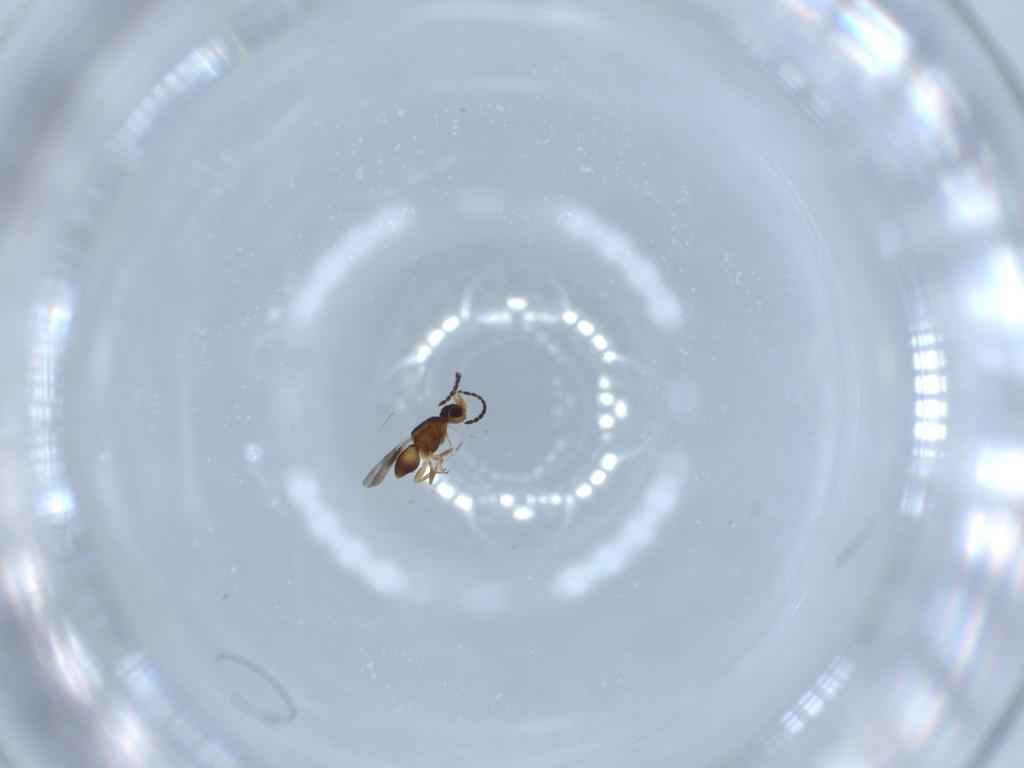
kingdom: Animalia
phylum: Arthropoda
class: Insecta
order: Hymenoptera
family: Ceraphronidae
